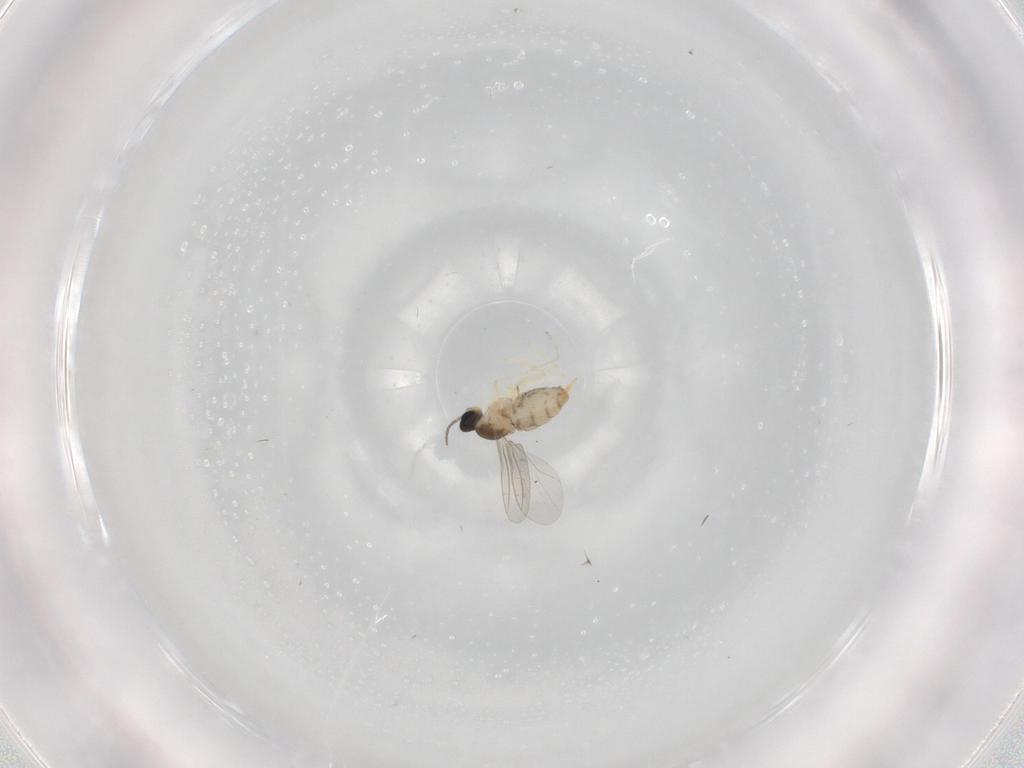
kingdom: Animalia
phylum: Arthropoda
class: Insecta
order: Diptera
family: Cecidomyiidae
